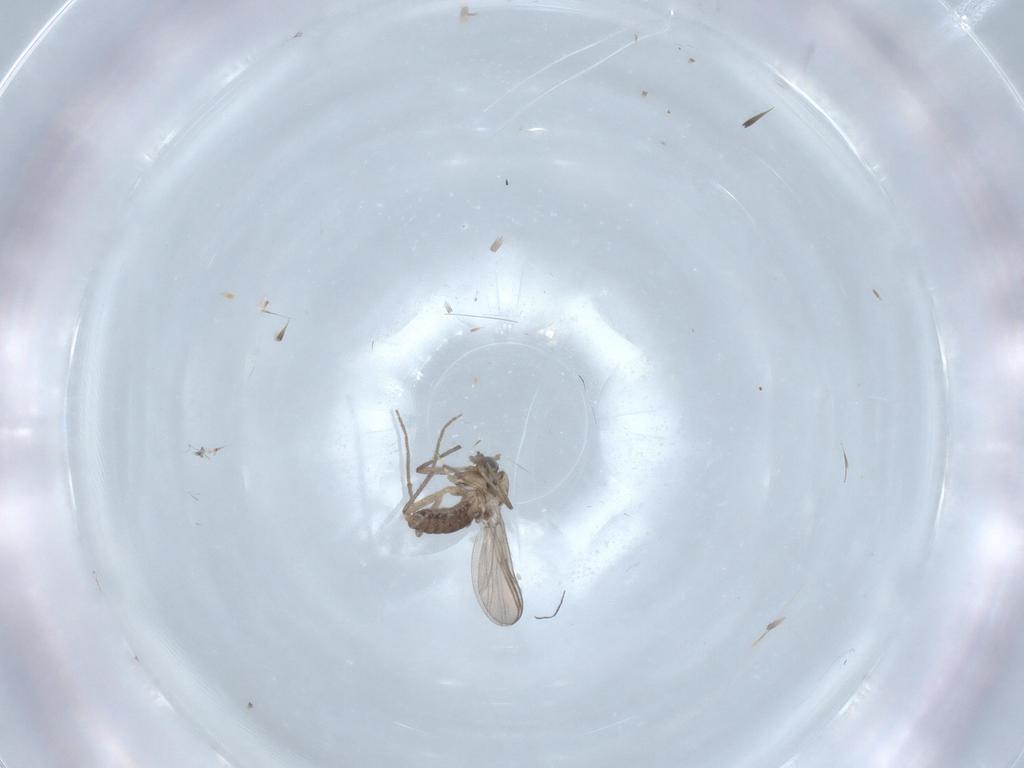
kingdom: Animalia
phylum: Arthropoda
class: Insecta
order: Diptera
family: Chironomidae
